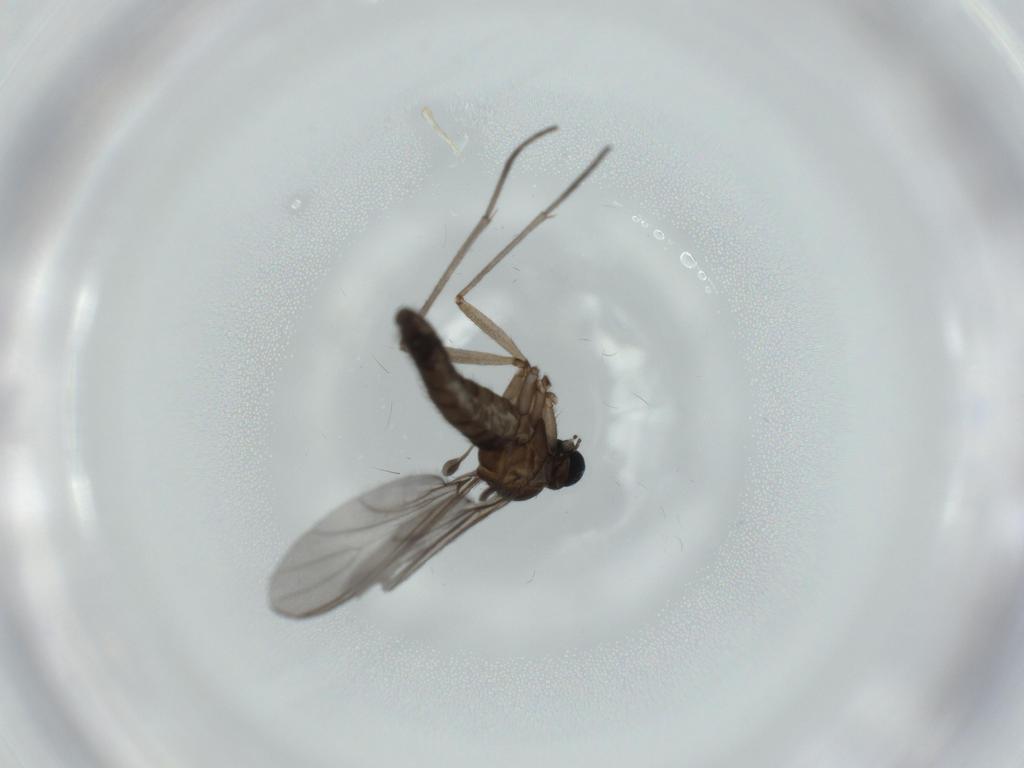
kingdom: Animalia
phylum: Arthropoda
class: Insecta
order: Diptera
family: Sciaridae
